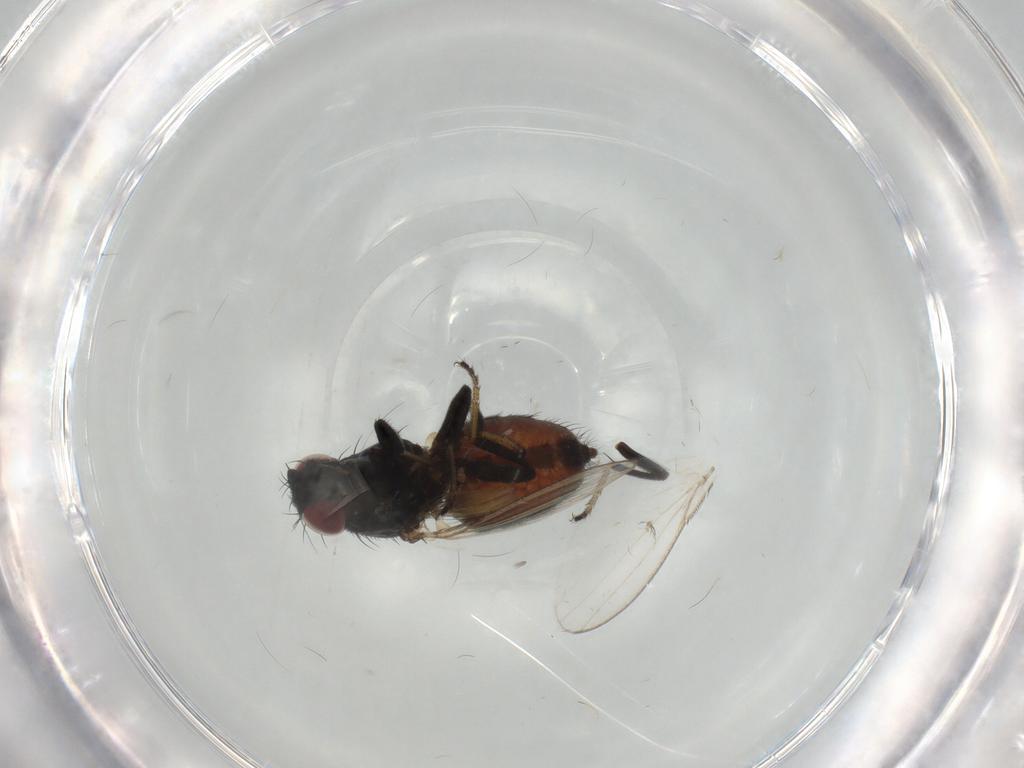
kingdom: Animalia
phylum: Arthropoda
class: Insecta
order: Diptera
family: Milichiidae
